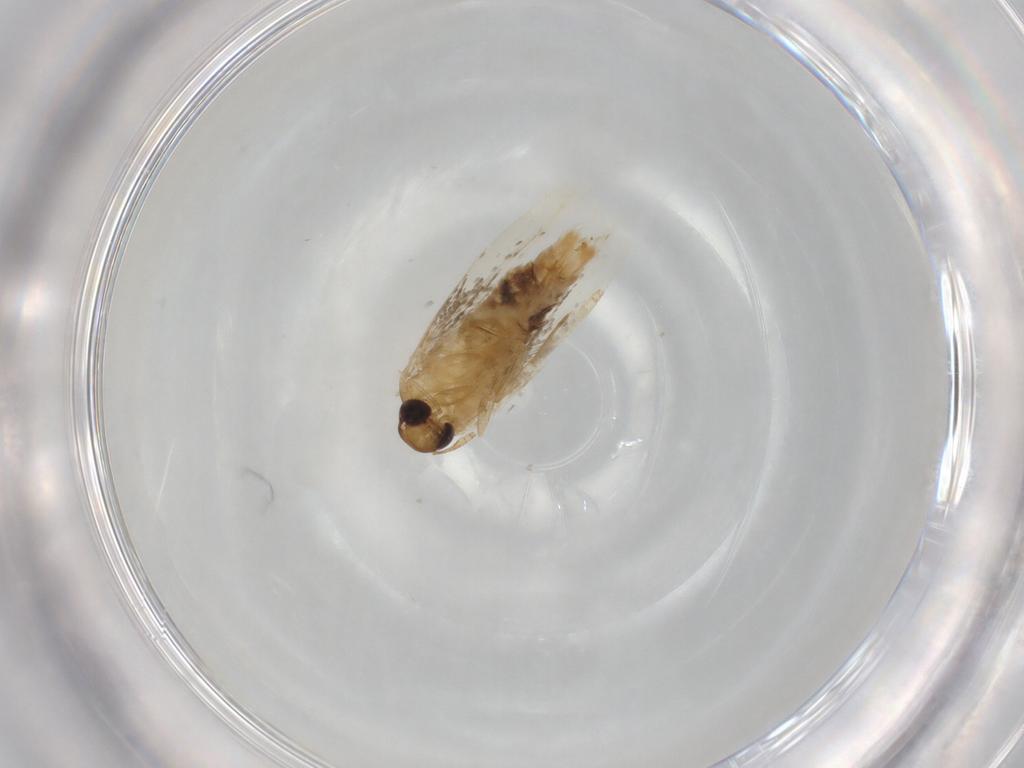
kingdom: Animalia
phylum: Arthropoda
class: Insecta
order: Lepidoptera
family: Cosmopterigidae
